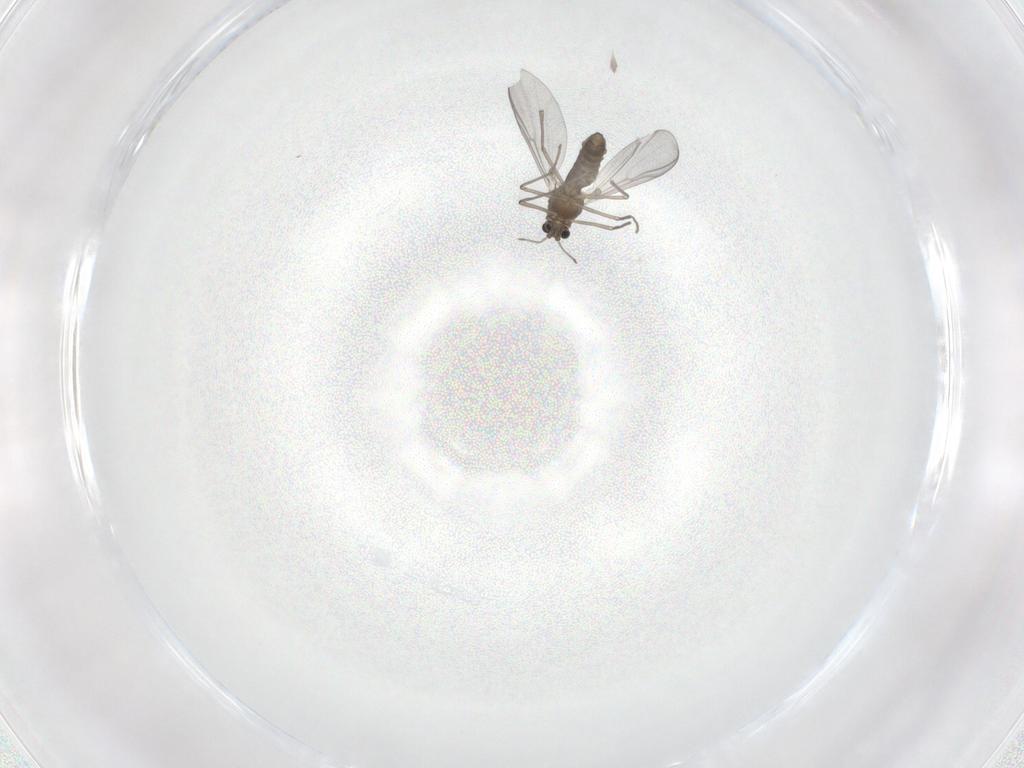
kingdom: Animalia
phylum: Arthropoda
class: Insecta
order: Diptera
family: Chironomidae
